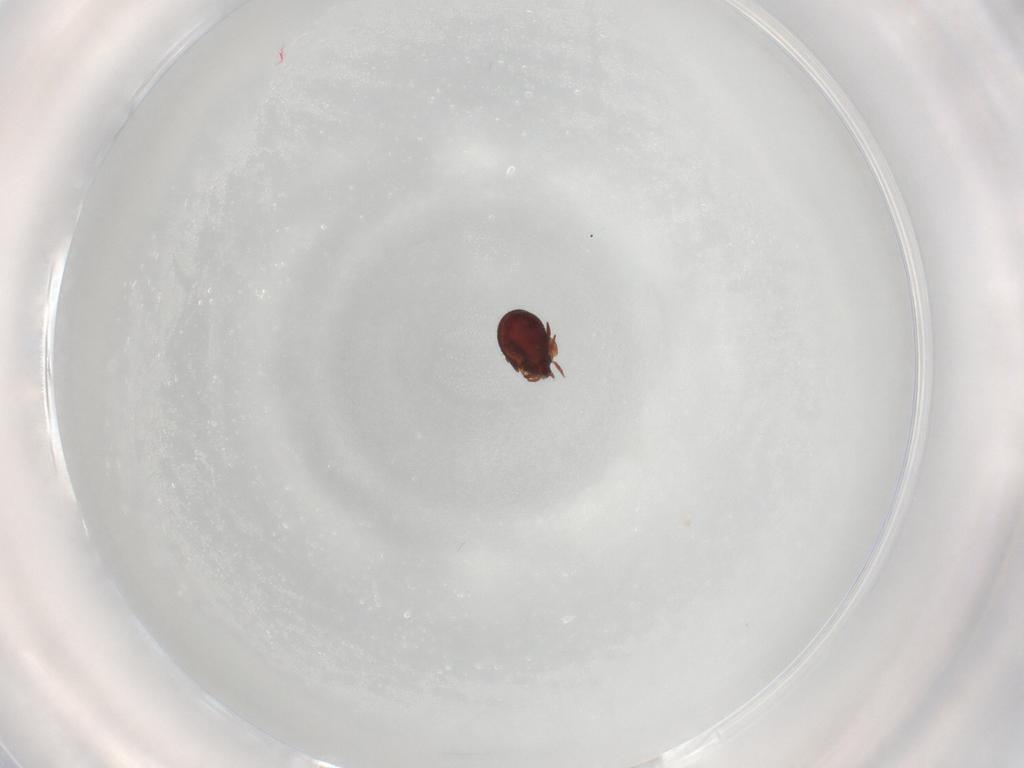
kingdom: Animalia
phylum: Arthropoda
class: Arachnida
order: Sarcoptiformes
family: Humerobatidae
